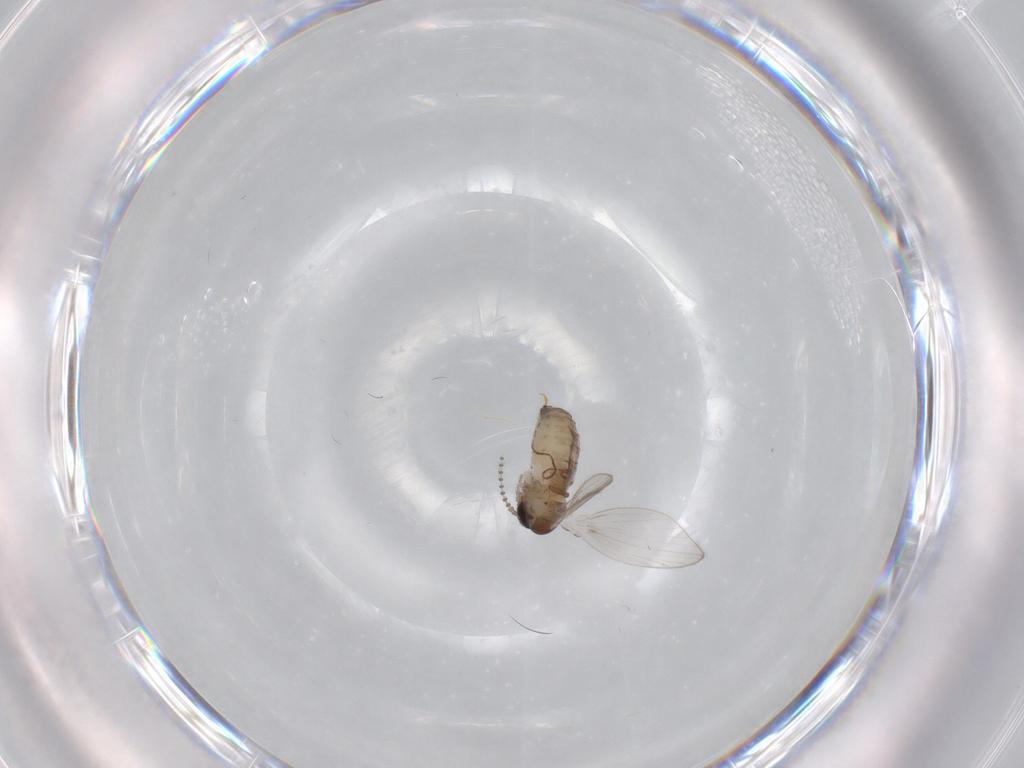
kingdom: Animalia
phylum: Arthropoda
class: Insecta
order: Diptera
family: Psychodidae
